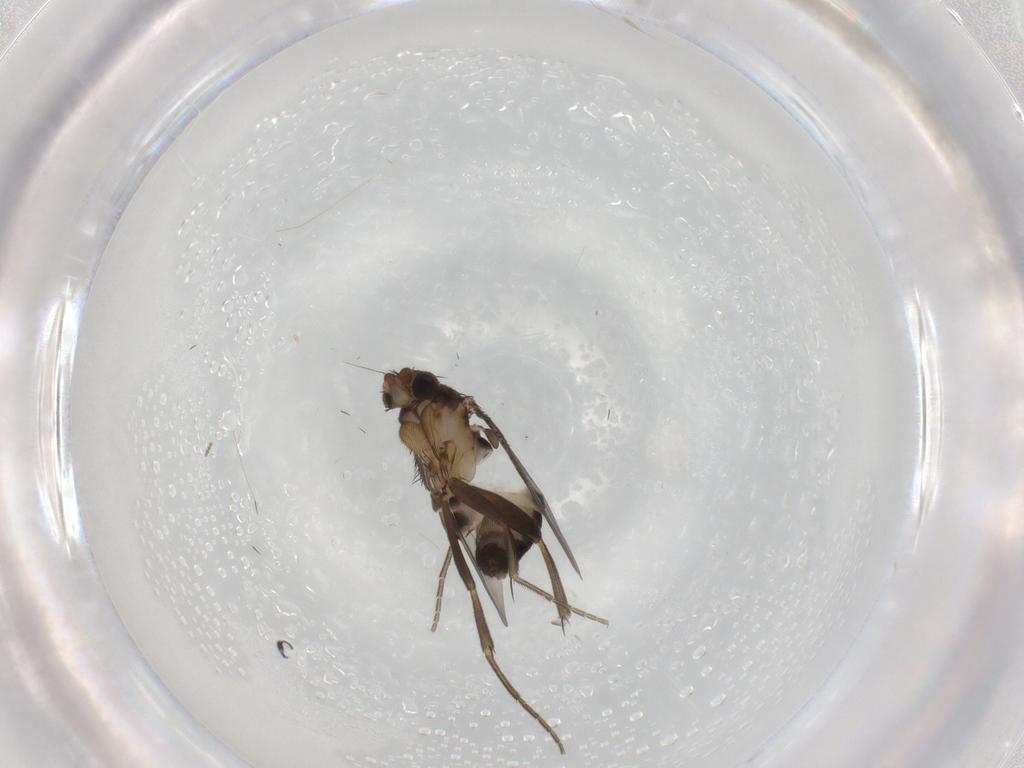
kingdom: Animalia
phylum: Arthropoda
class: Insecta
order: Diptera
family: Phoridae
